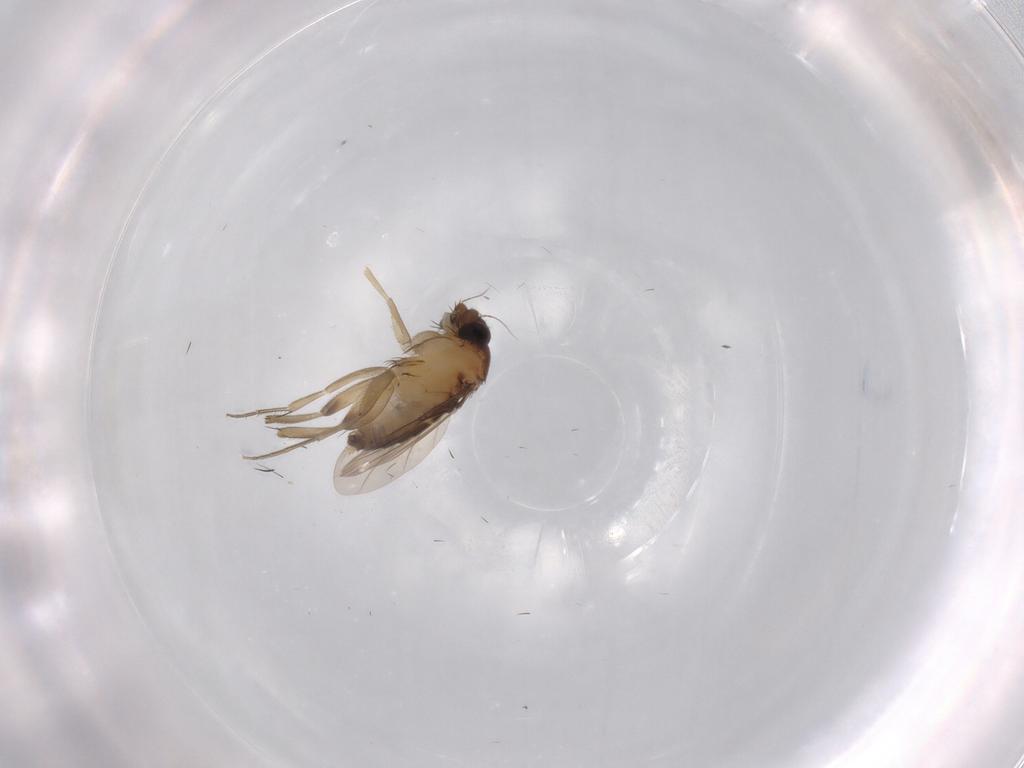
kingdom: Animalia
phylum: Arthropoda
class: Insecta
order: Diptera
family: Phoridae
